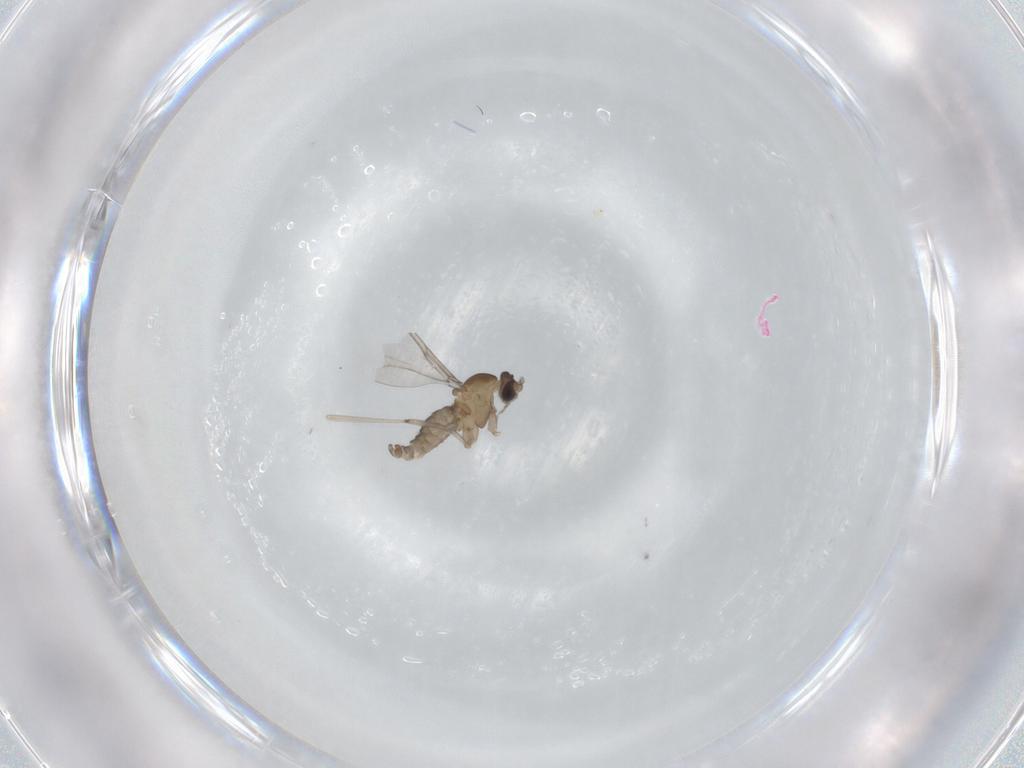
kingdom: Animalia
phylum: Arthropoda
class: Insecta
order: Diptera
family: Cecidomyiidae
